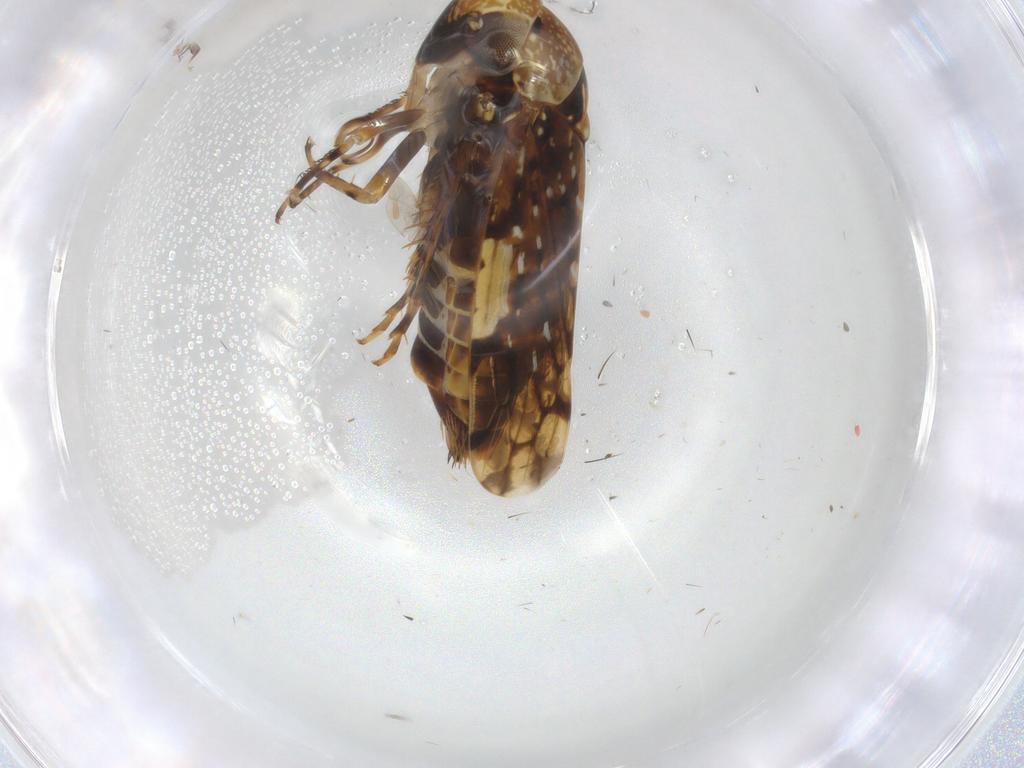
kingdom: Animalia
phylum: Arthropoda
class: Insecta
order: Hemiptera
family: Cicadellidae
